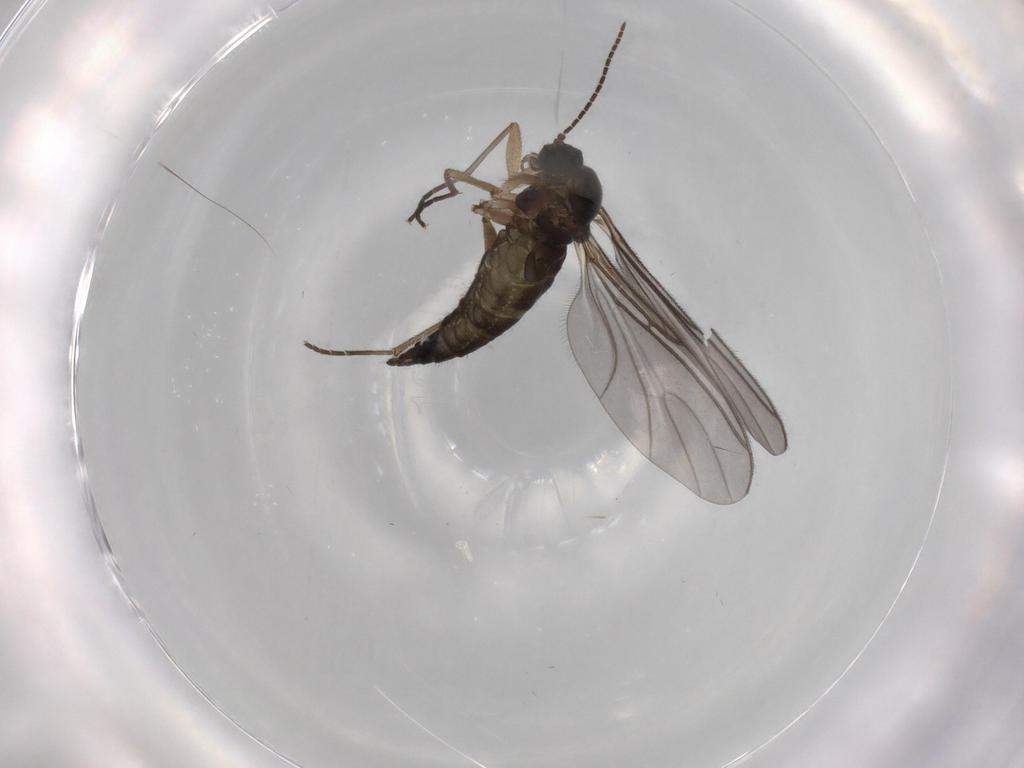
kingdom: Animalia
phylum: Arthropoda
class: Insecta
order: Diptera
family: Sciaridae
